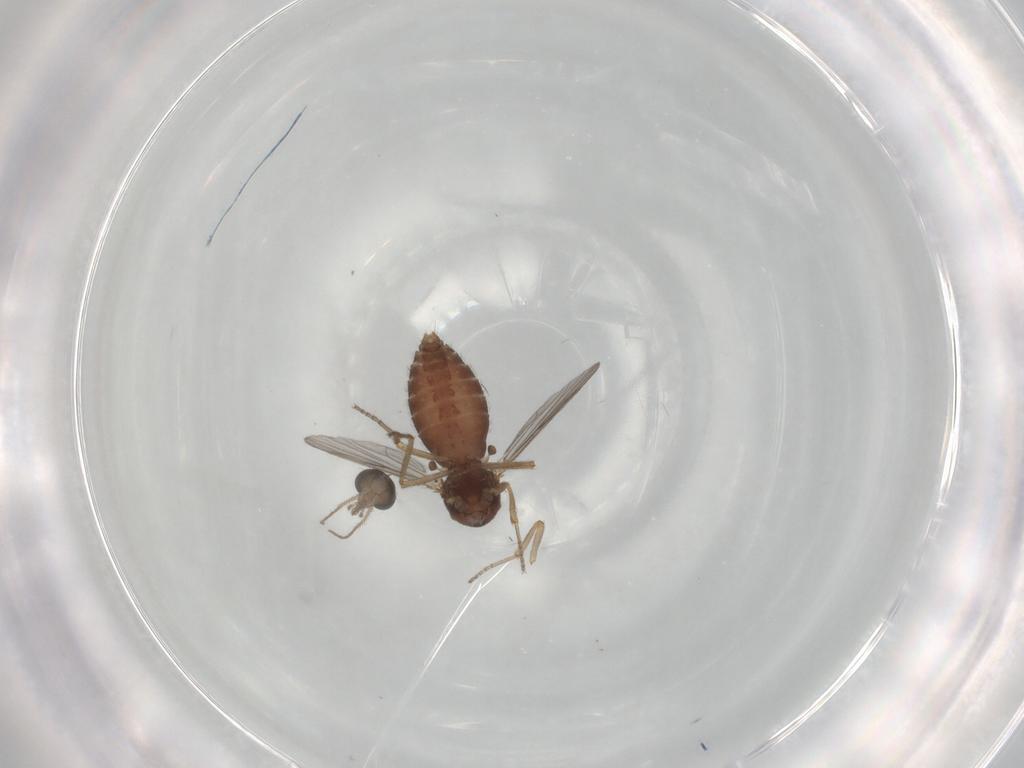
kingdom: Animalia
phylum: Arthropoda
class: Insecta
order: Diptera
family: Ceratopogonidae
